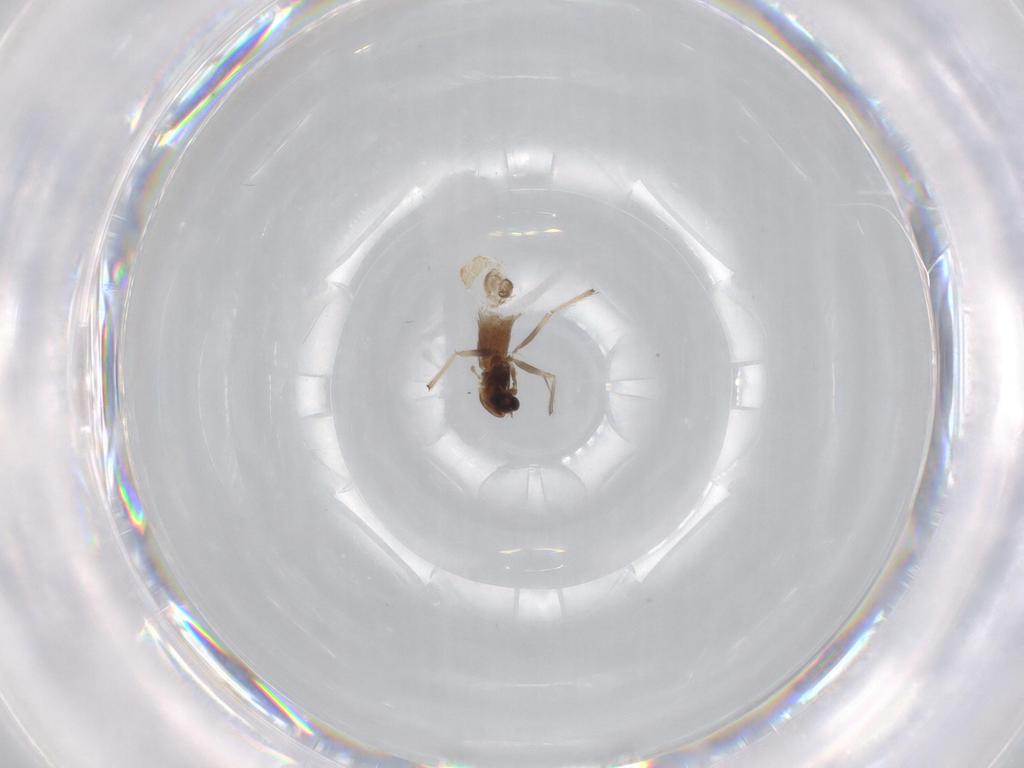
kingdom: Animalia
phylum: Arthropoda
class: Insecta
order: Diptera
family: Chironomidae
